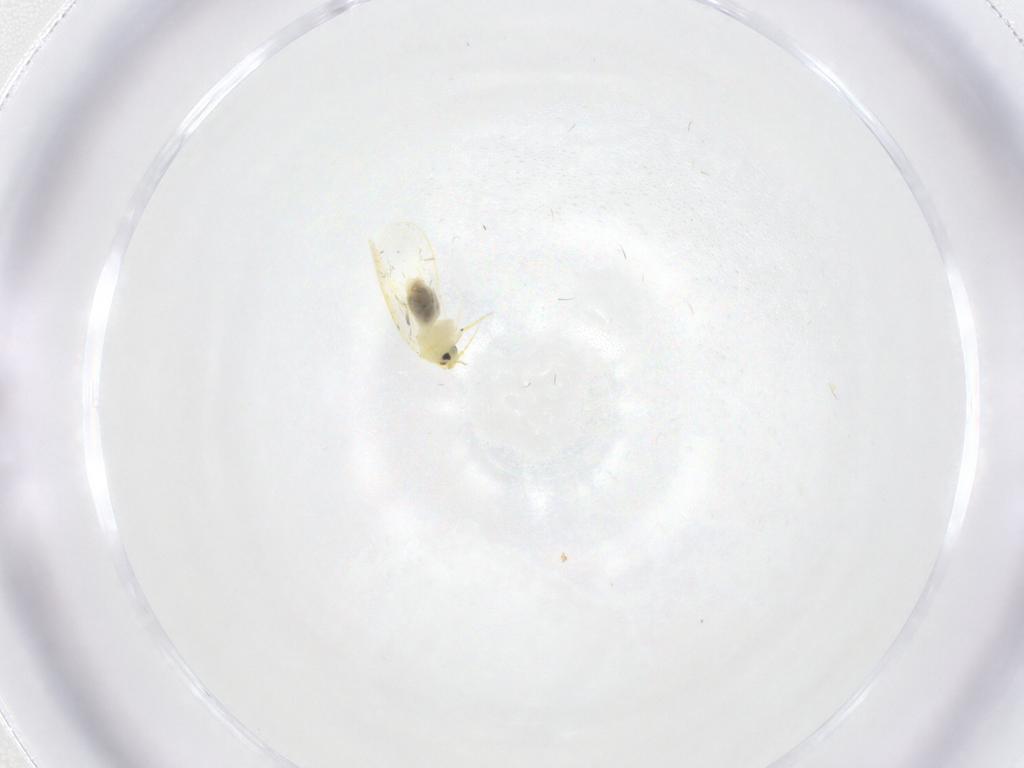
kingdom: Animalia
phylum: Arthropoda
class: Insecta
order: Hemiptera
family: Aleyrodidae
